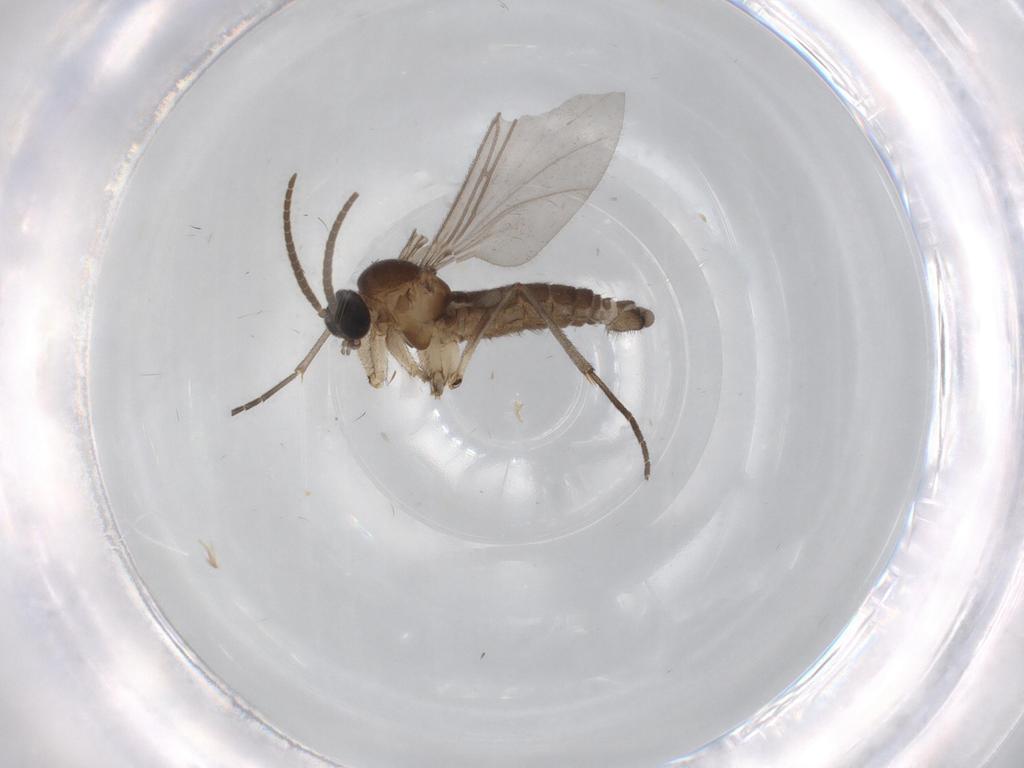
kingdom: Animalia
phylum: Arthropoda
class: Insecta
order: Diptera
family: Sciaridae
